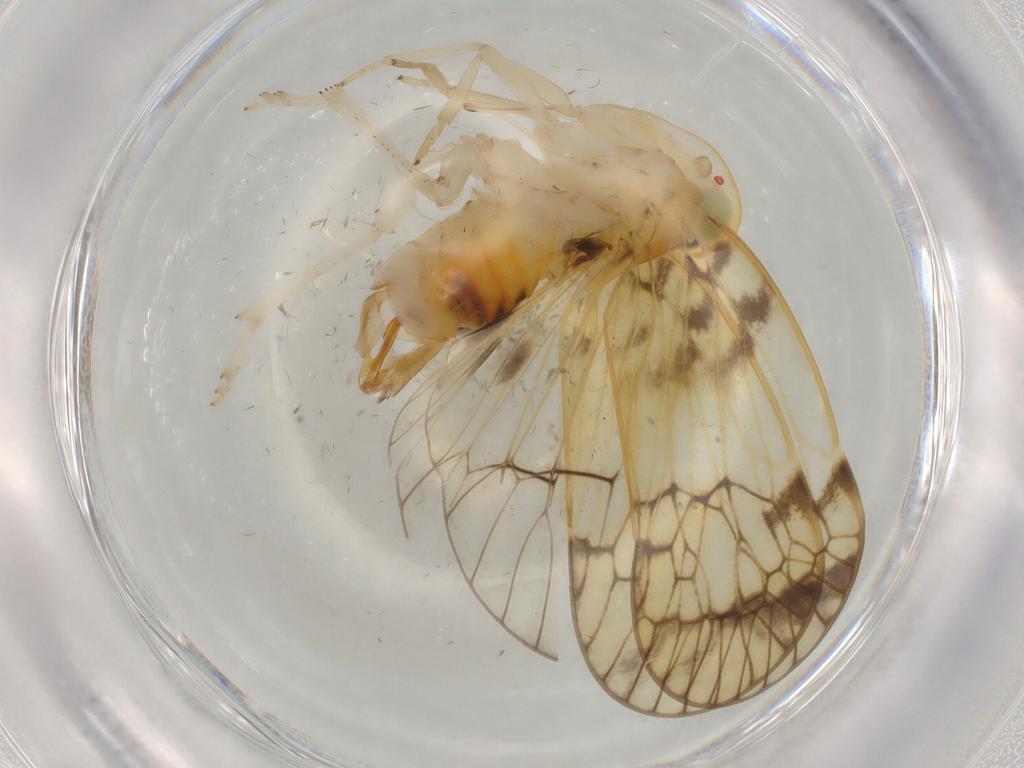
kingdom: Animalia
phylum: Arthropoda
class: Insecta
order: Hemiptera
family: Cixiidae
